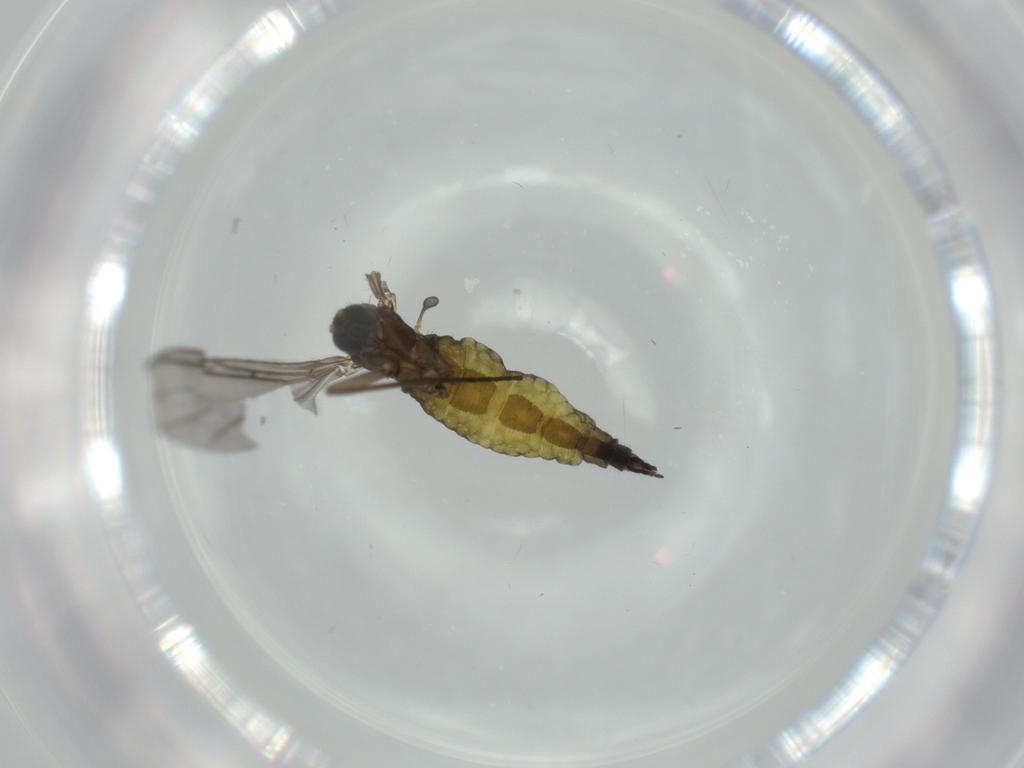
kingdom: Animalia
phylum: Arthropoda
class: Insecta
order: Diptera
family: Sciaridae
